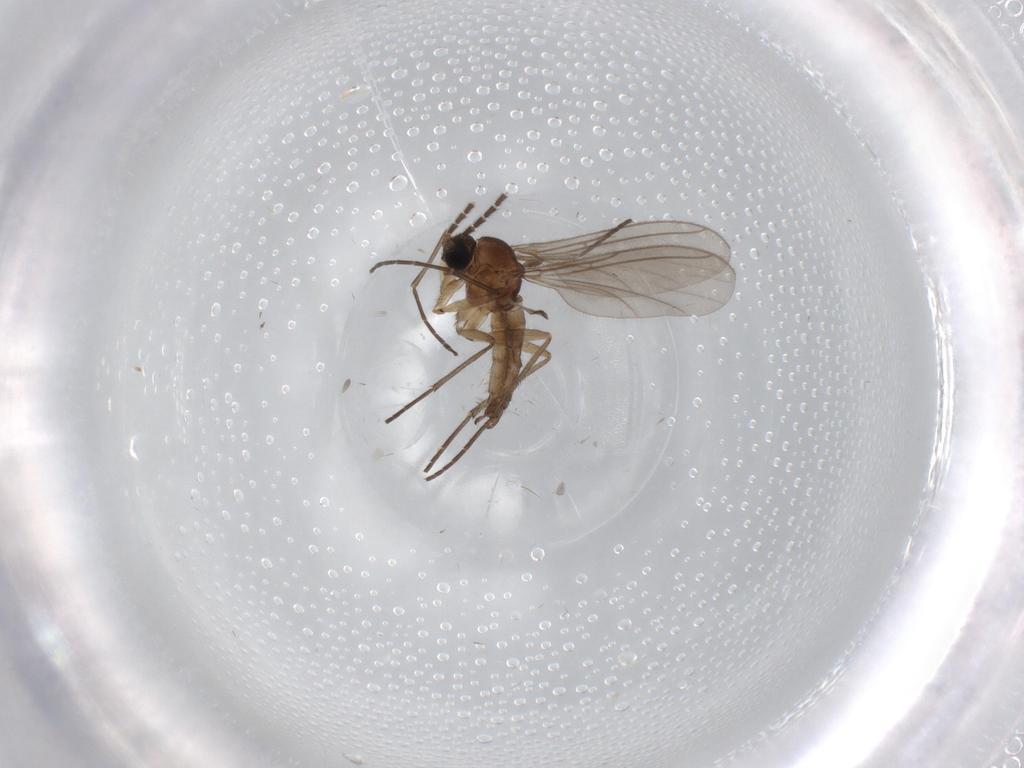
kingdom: Animalia
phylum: Arthropoda
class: Insecta
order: Diptera
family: Sciaridae
